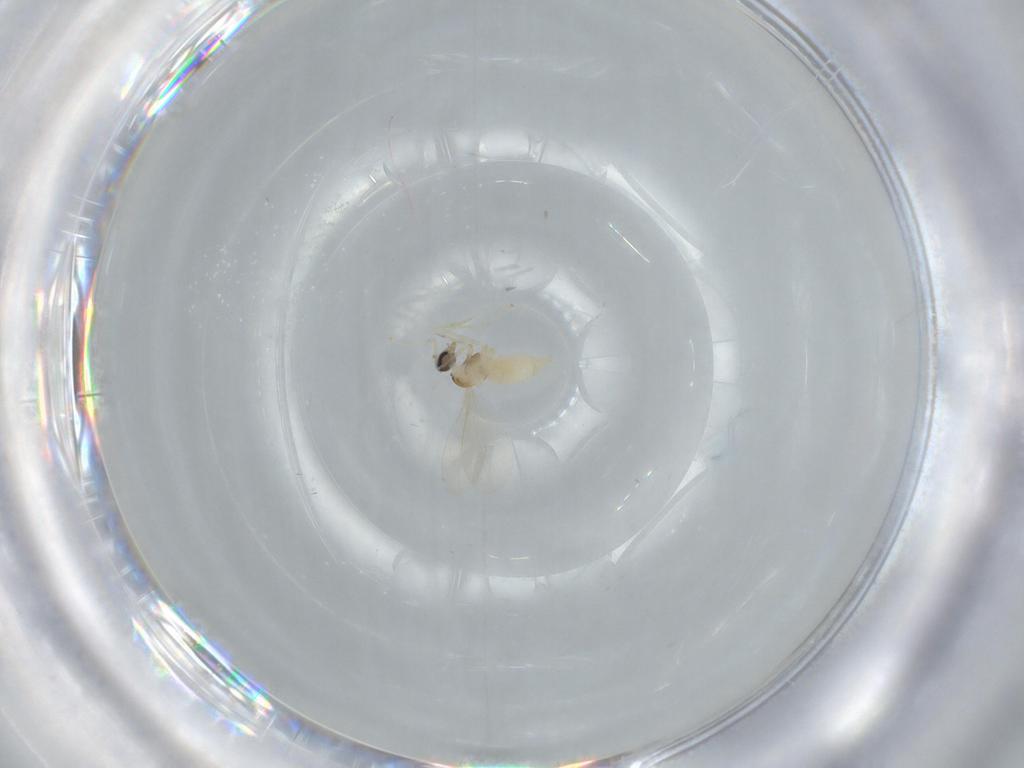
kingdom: Animalia
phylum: Arthropoda
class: Insecta
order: Diptera
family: Cecidomyiidae
